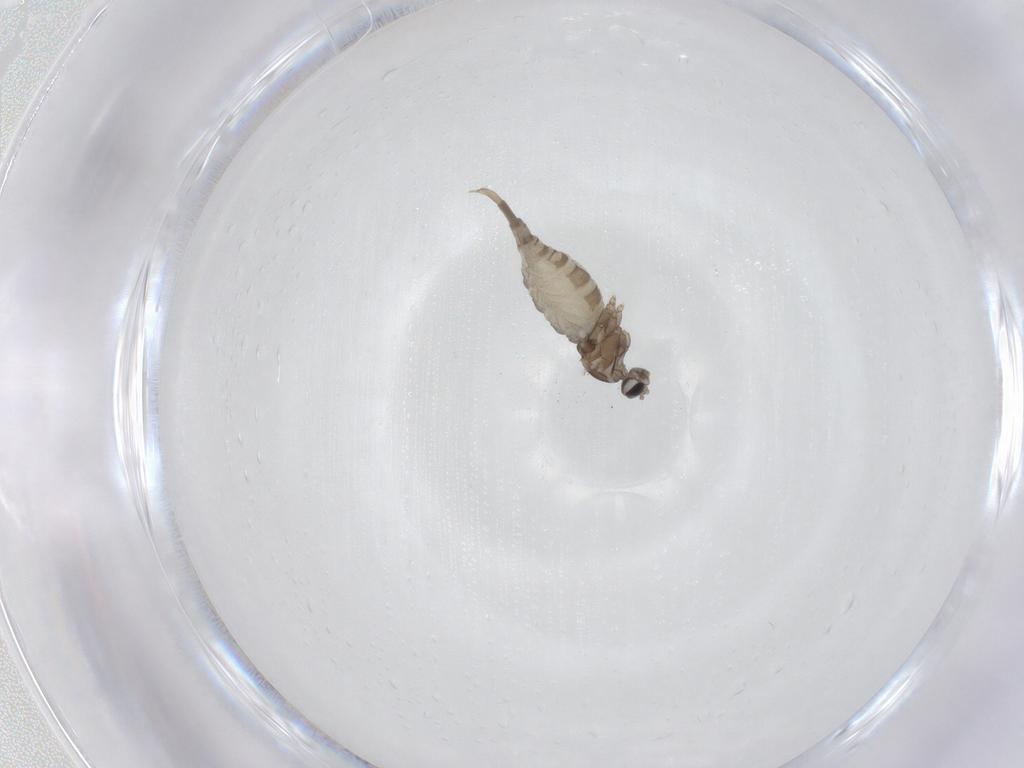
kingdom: Animalia
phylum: Arthropoda
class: Insecta
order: Diptera
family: Cecidomyiidae
